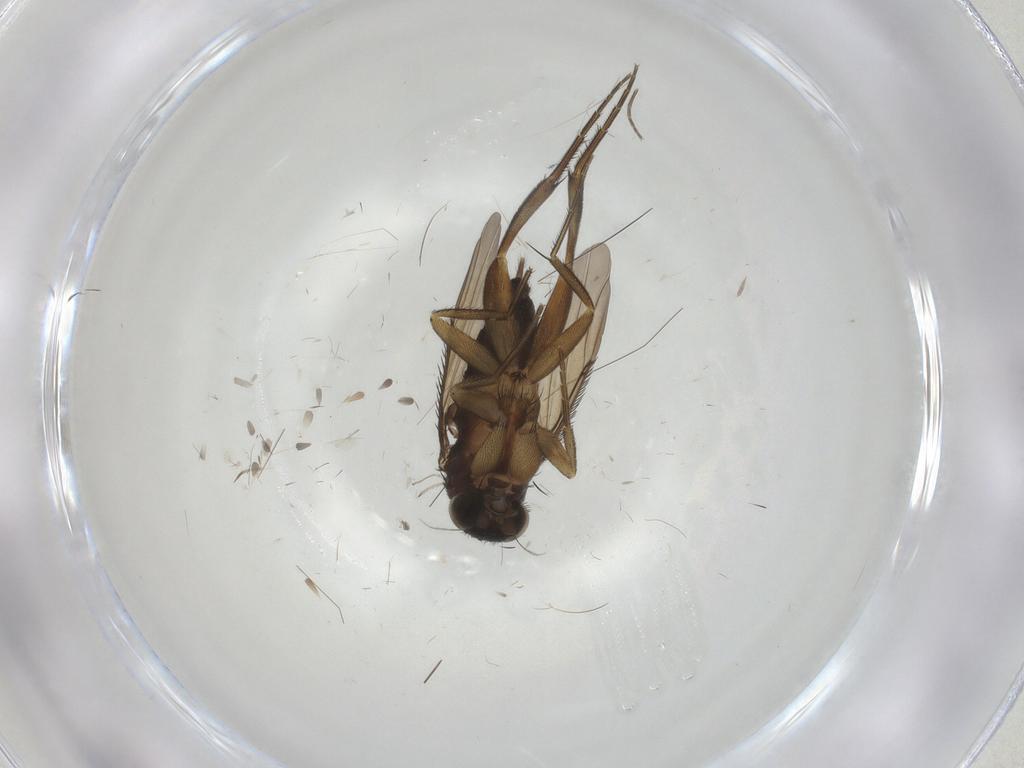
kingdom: Animalia
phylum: Arthropoda
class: Insecta
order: Diptera
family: Phoridae
